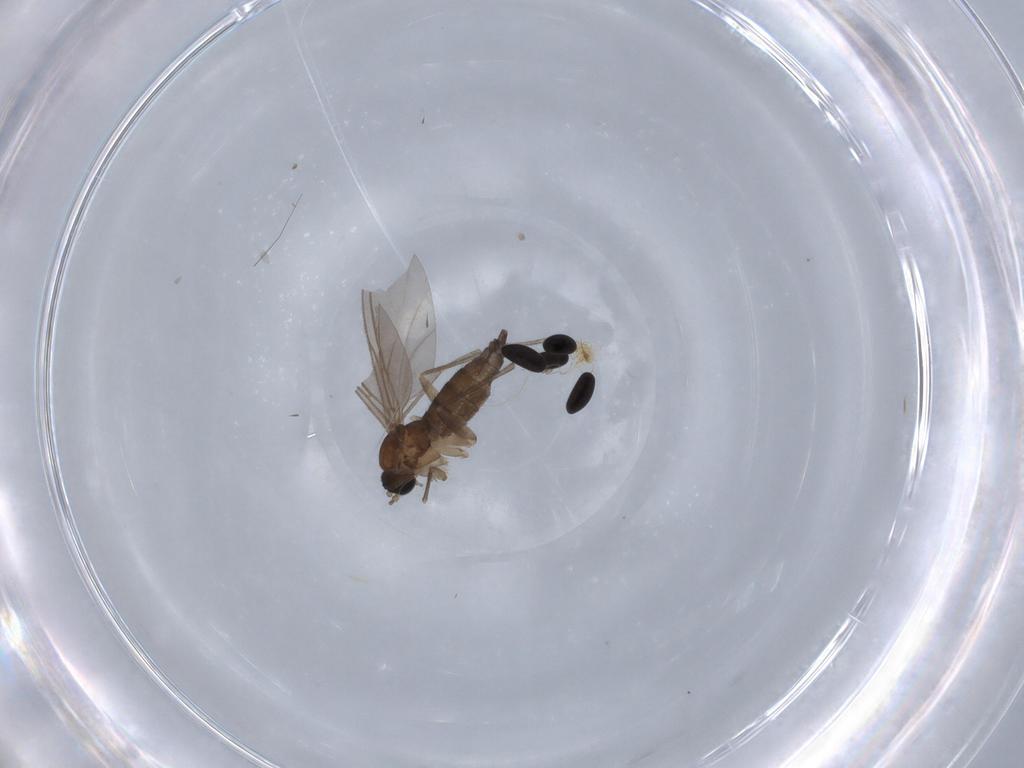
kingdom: Animalia
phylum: Arthropoda
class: Insecta
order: Diptera
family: Sciaridae
